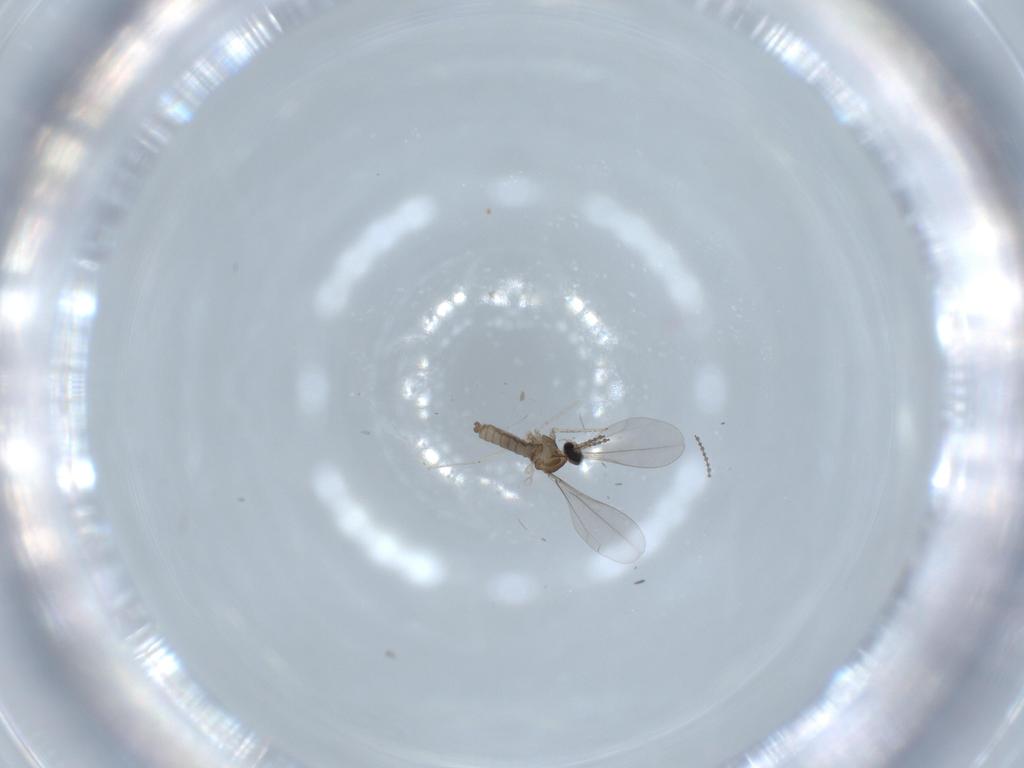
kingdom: Animalia
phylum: Arthropoda
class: Insecta
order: Diptera
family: Cecidomyiidae
